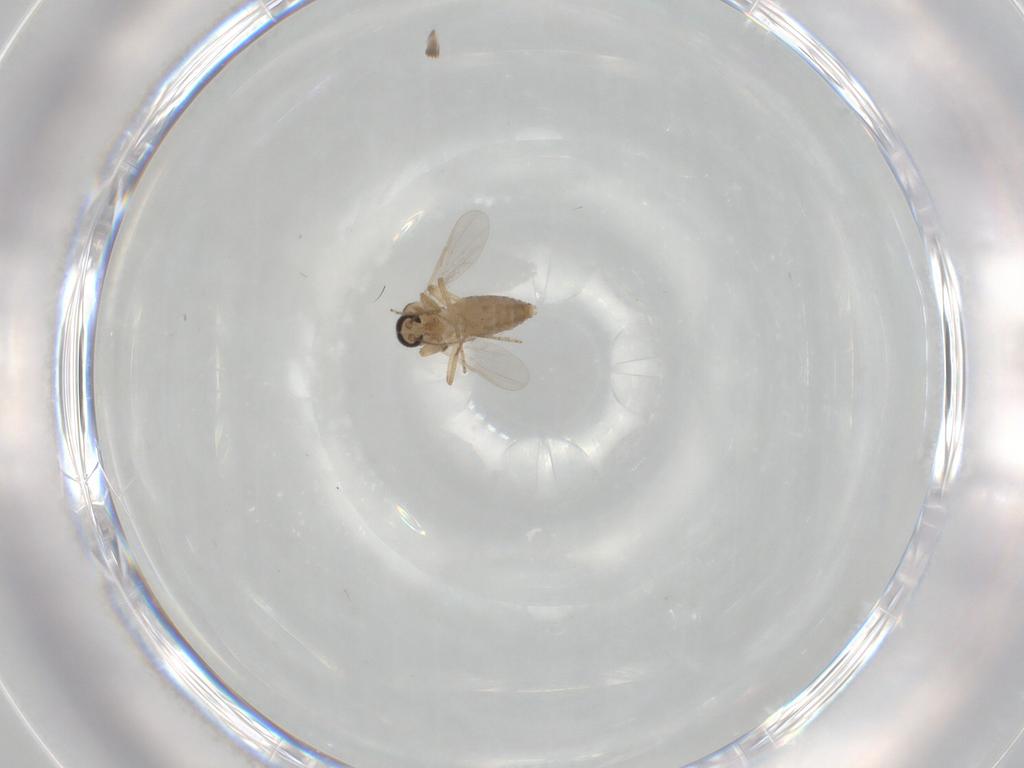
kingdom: Animalia
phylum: Arthropoda
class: Insecta
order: Diptera
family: Ceratopogonidae
